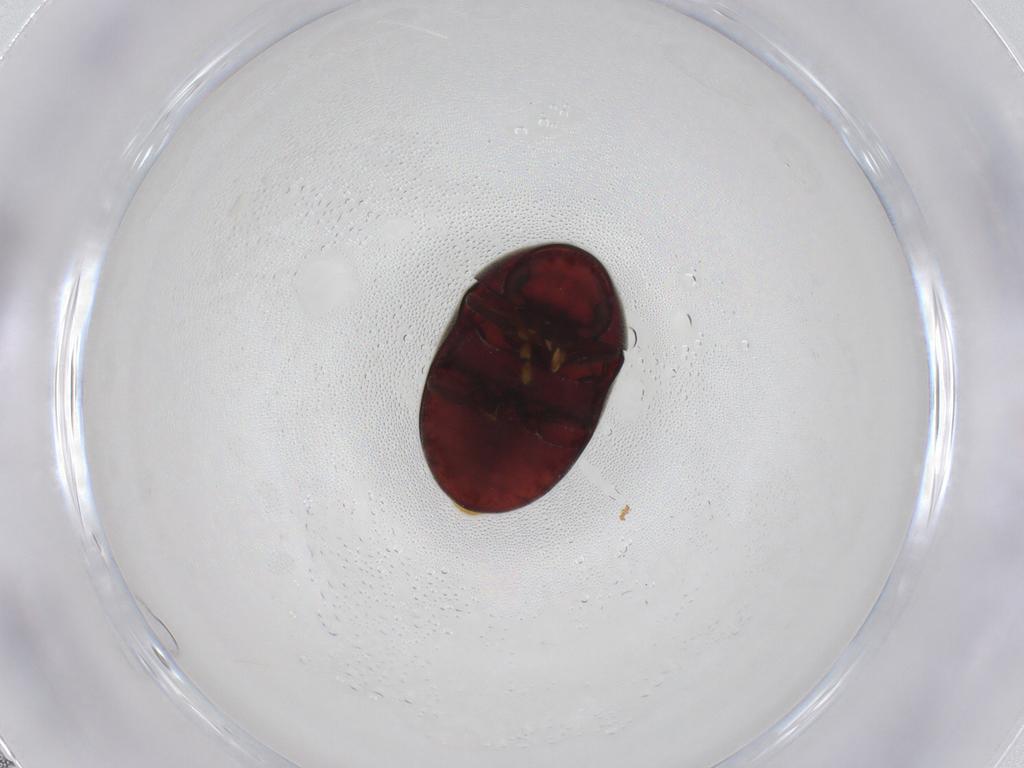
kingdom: Animalia
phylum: Arthropoda
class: Insecta
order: Coleoptera
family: Ptinidae
